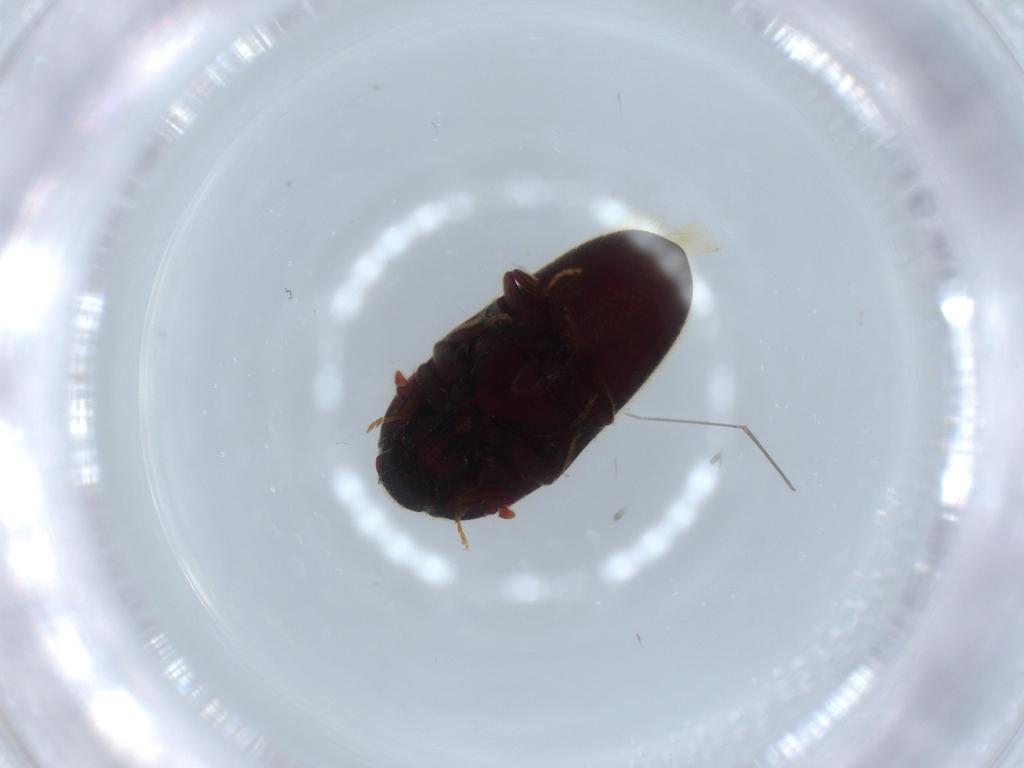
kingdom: Animalia
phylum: Arthropoda
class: Insecta
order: Coleoptera
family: Throscidae
